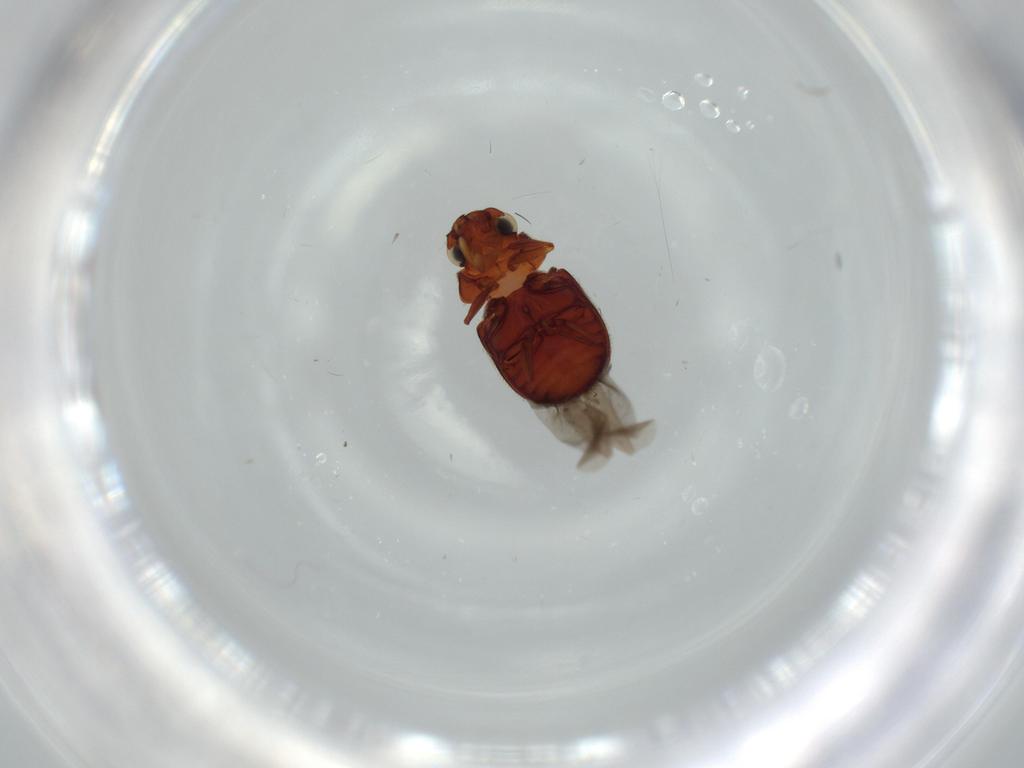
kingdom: Animalia
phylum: Arthropoda
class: Insecta
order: Coleoptera
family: Ptinidae
